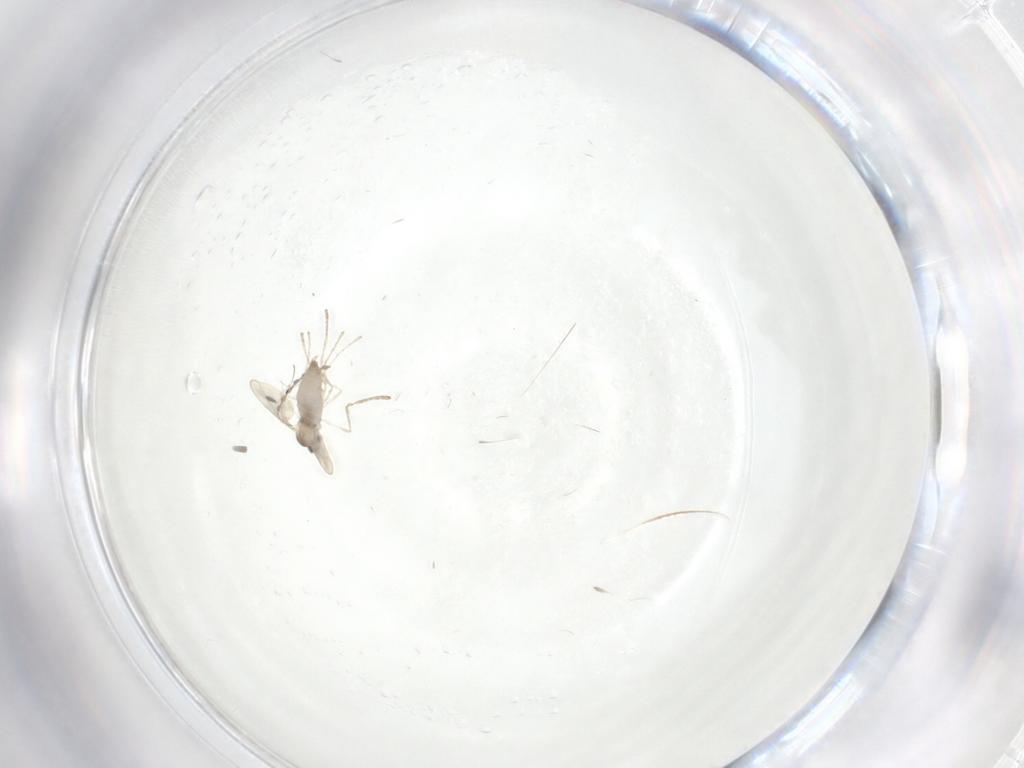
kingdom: Animalia
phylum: Arthropoda
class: Insecta
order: Diptera
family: Cecidomyiidae
